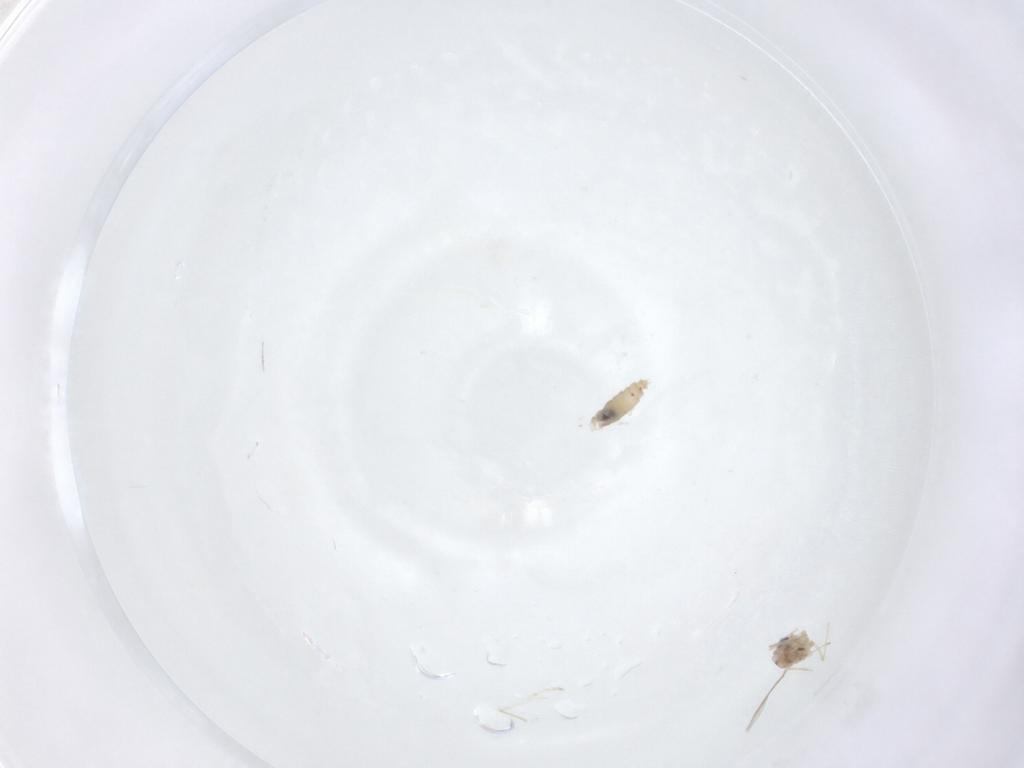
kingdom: Animalia
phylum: Arthropoda
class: Insecta
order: Diptera
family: Cecidomyiidae
